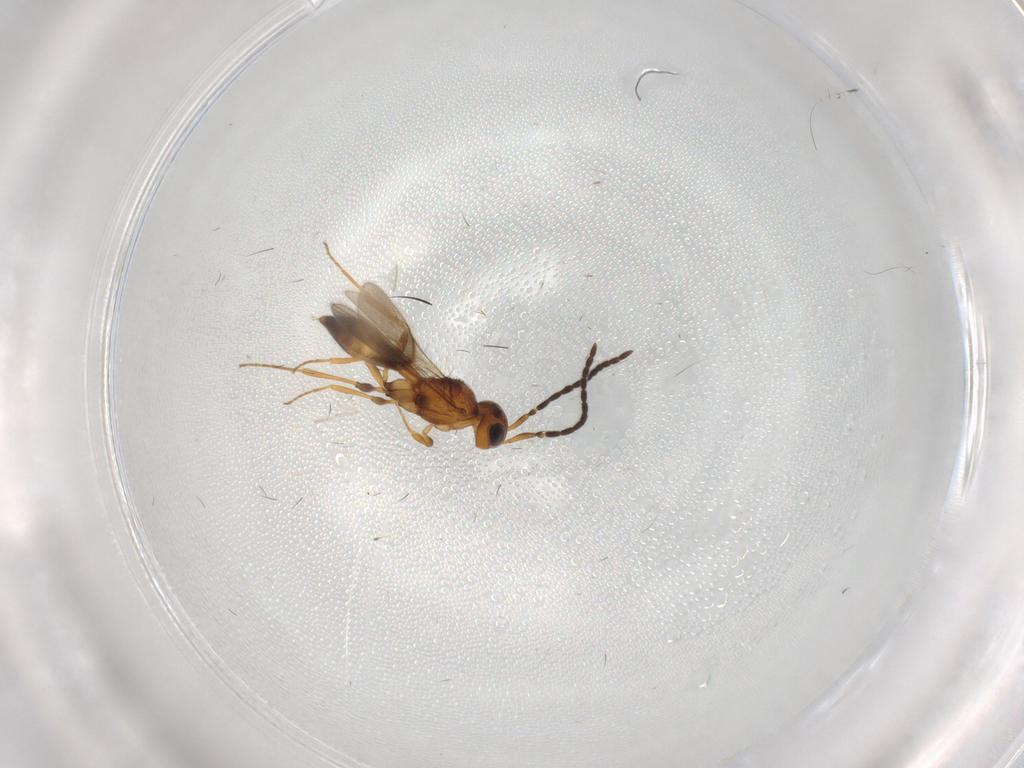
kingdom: Animalia
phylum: Arthropoda
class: Insecta
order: Hymenoptera
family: Scelionidae
